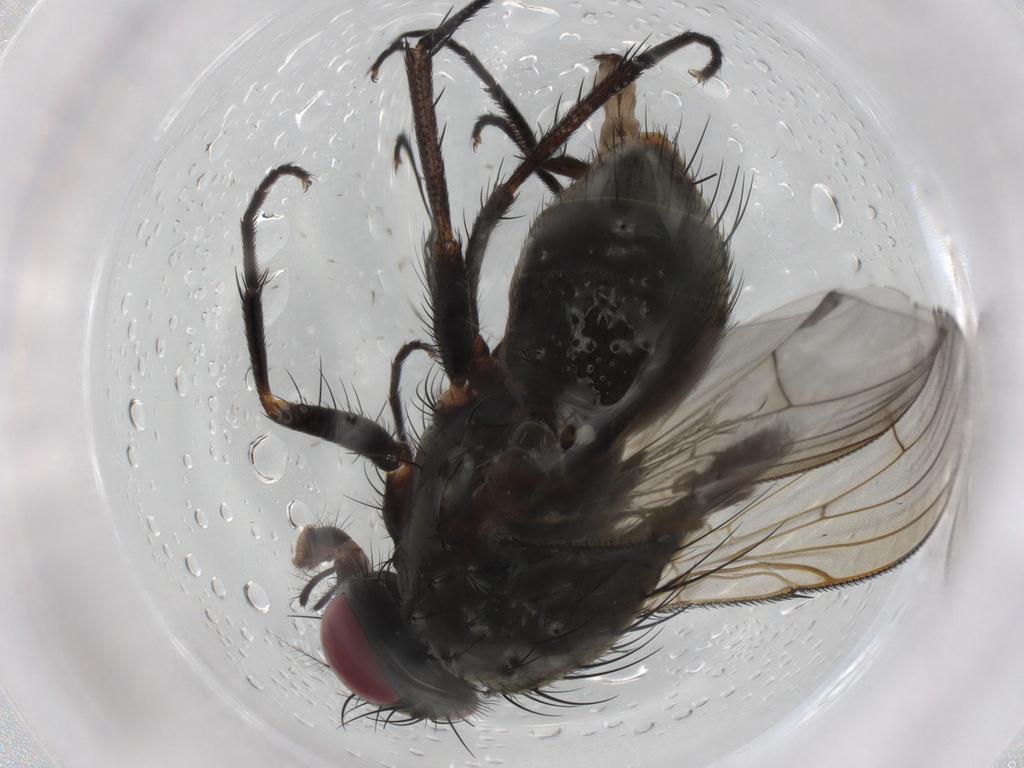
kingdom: Animalia
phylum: Arthropoda
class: Insecta
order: Diptera
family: Muscidae
